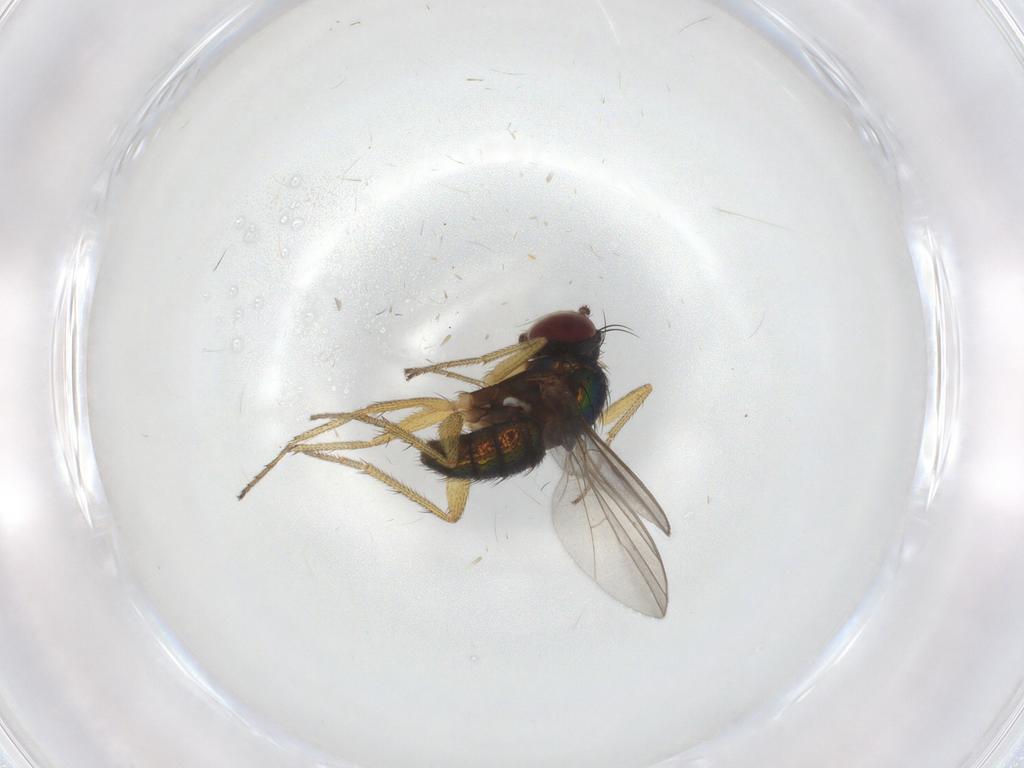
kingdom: Animalia
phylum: Arthropoda
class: Insecta
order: Diptera
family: Dolichopodidae
